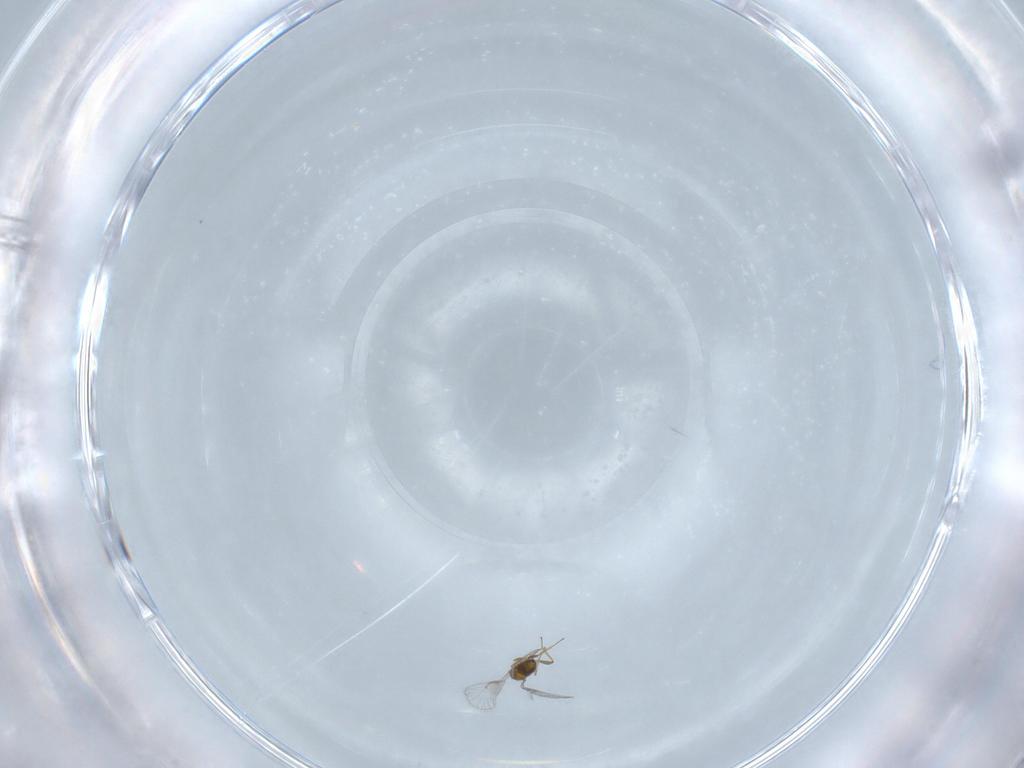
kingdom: Animalia
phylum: Arthropoda
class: Insecta
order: Hymenoptera
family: Trichogrammatidae
